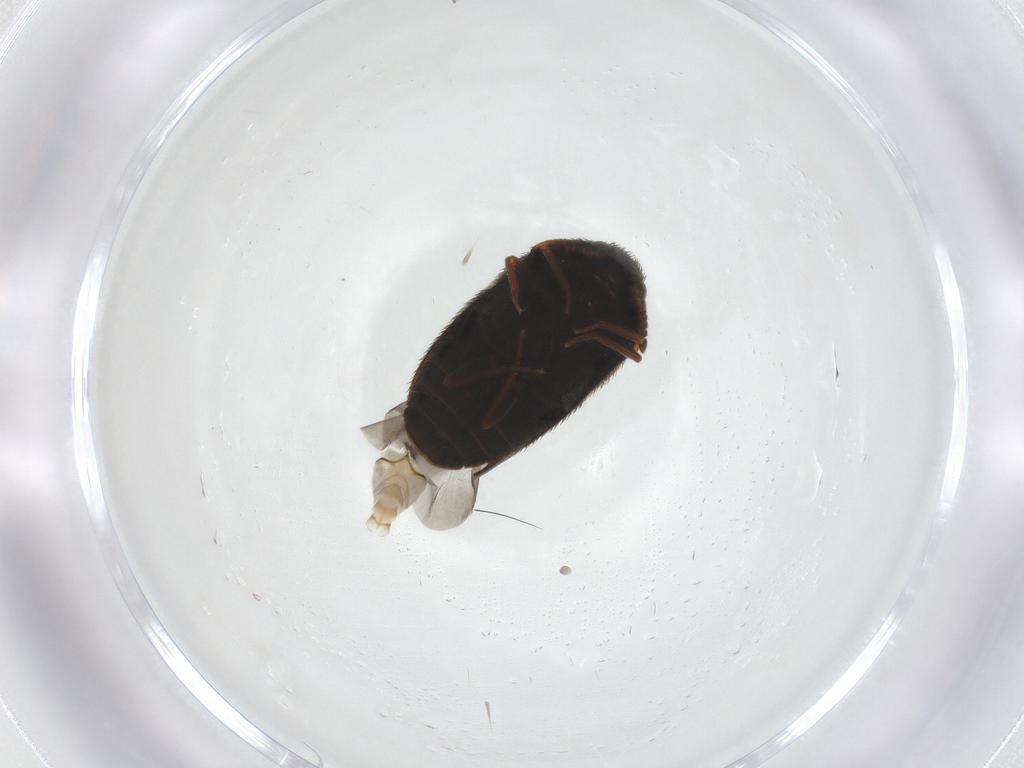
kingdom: Animalia
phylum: Arthropoda
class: Insecta
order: Coleoptera
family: Dermestidae
